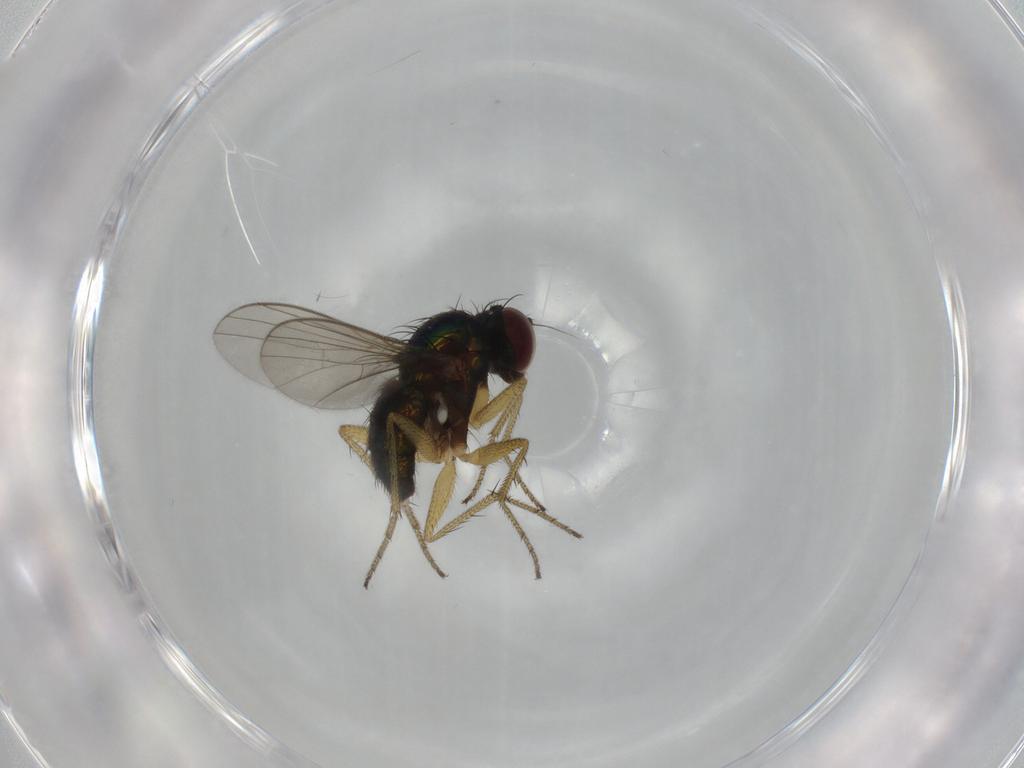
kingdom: Animalia
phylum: Arthropoda
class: Insecta
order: Diptera
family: Dolichopodidae
